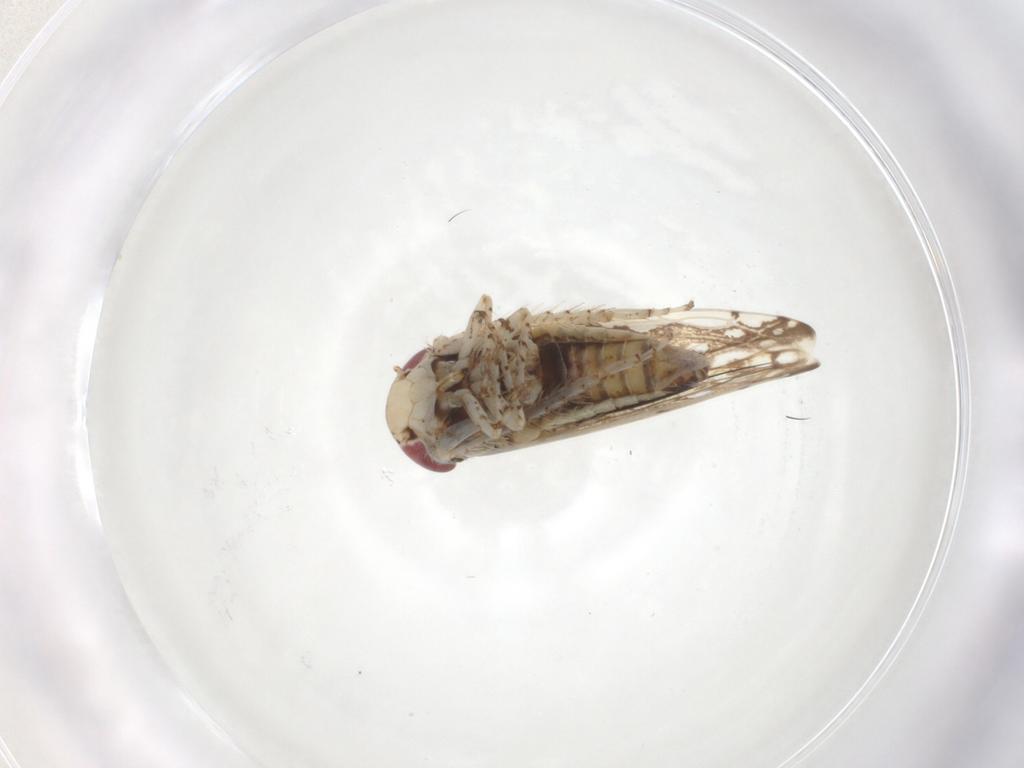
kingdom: Animalia
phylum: Arthropoda
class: Insecta
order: Hemiptera
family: Cicadellidae
